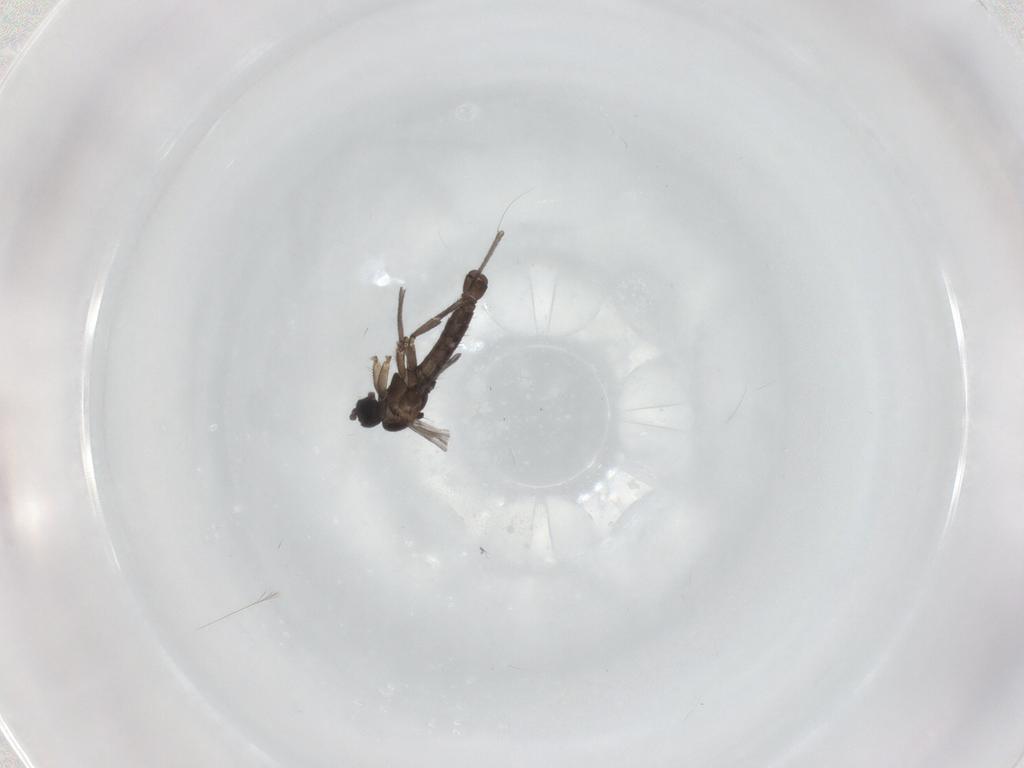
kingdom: Animalia
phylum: Arthropoda
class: Insecta
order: Diptera
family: Sciaridae
